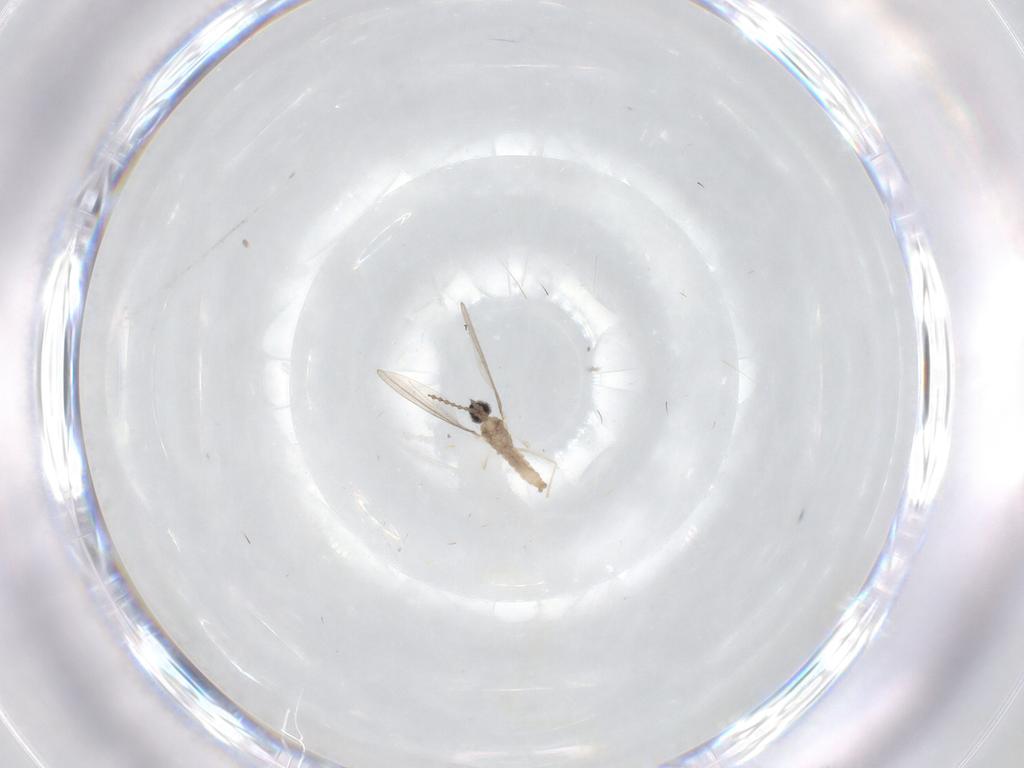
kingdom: Animalia
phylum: Arthropoda
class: Insecta
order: Diptera
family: Cecidomyiidae
